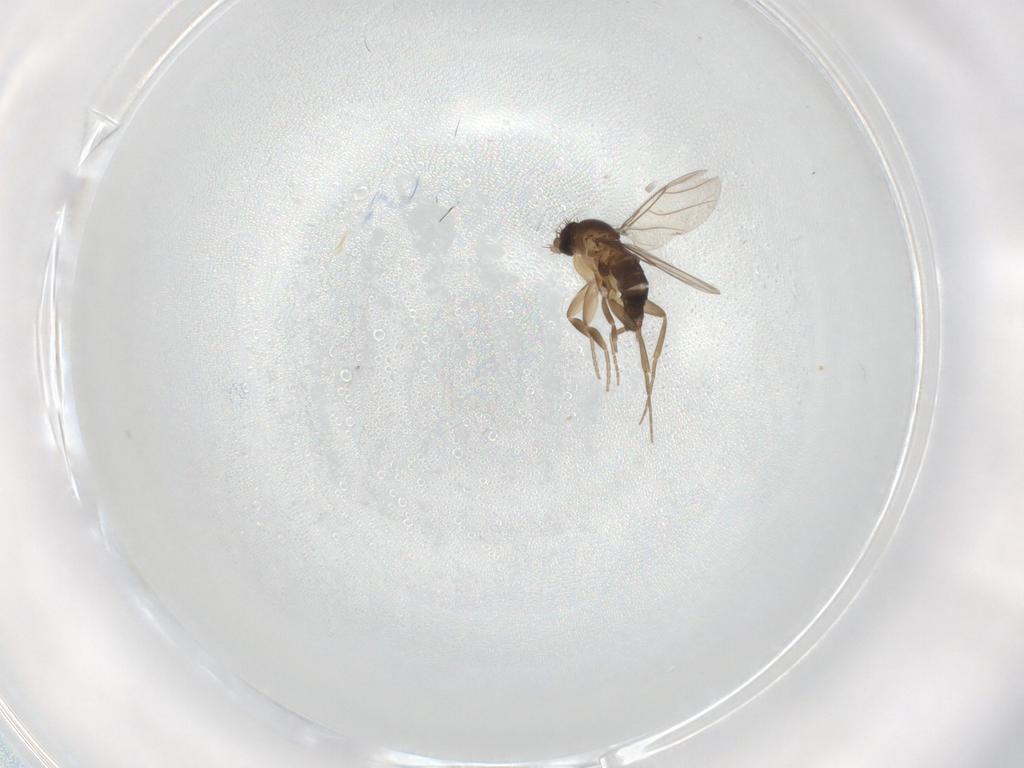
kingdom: Animalia
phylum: Arthropoda
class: Insecta
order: Diptera
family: Phoridae
